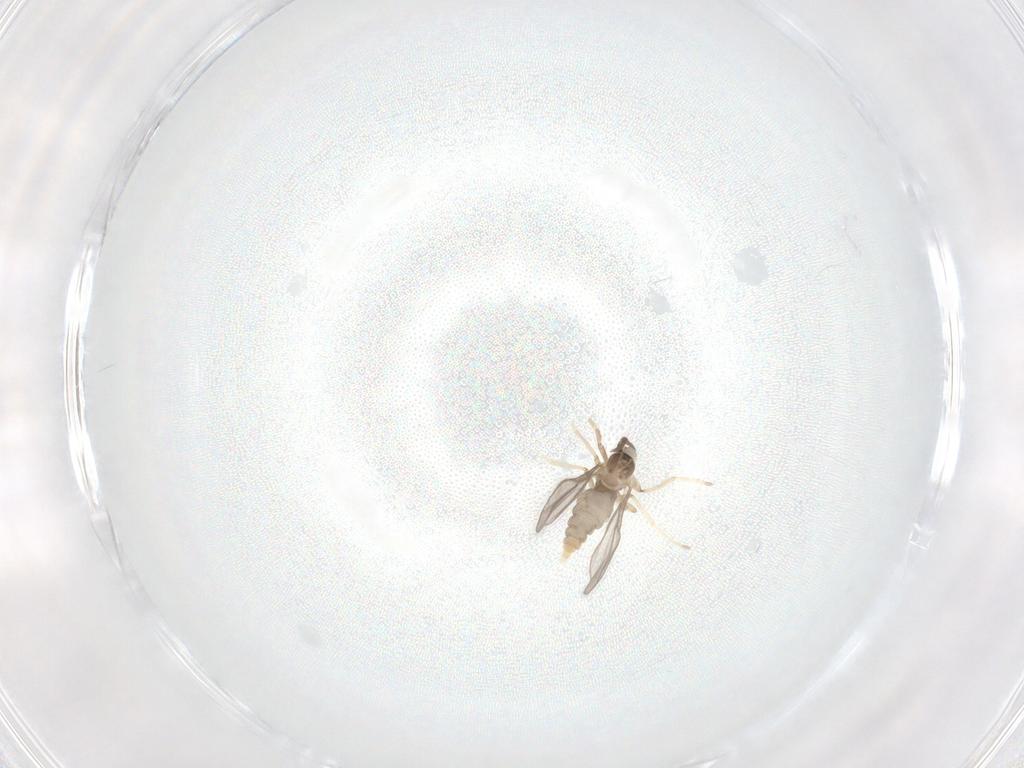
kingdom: Animalia
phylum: Arthropoda
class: Insecta
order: Diptera
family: Cecidomyiidae
